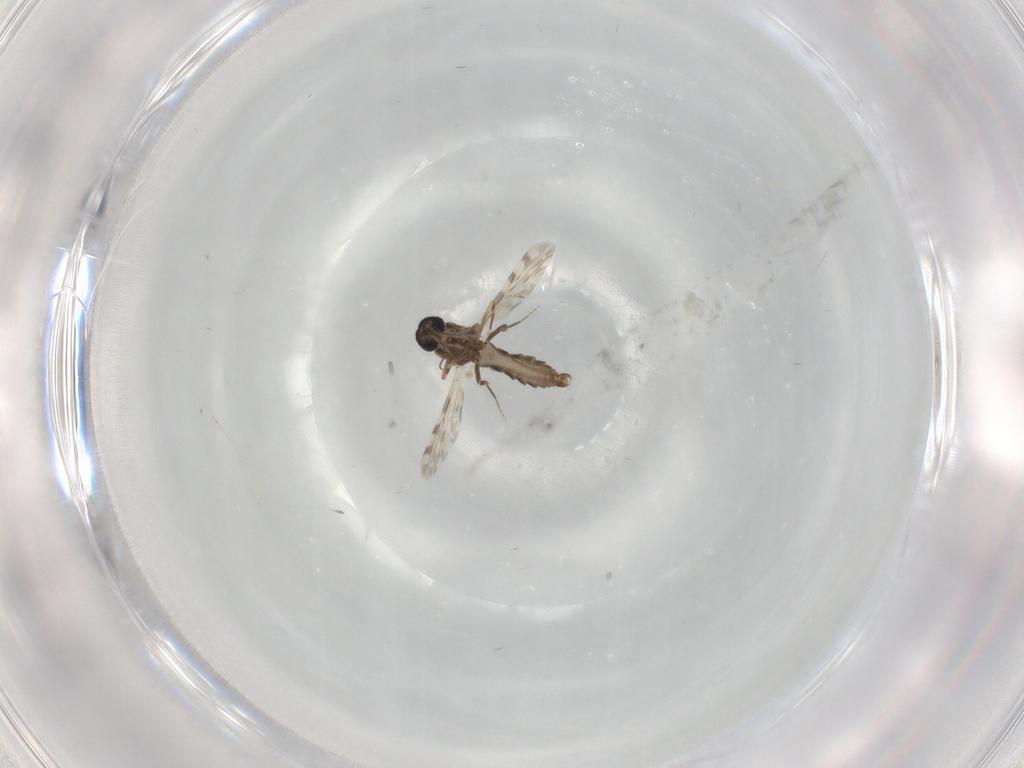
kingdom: Animalia
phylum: Arthropoda
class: Insecta
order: Diptera
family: Ceratopogonidae
